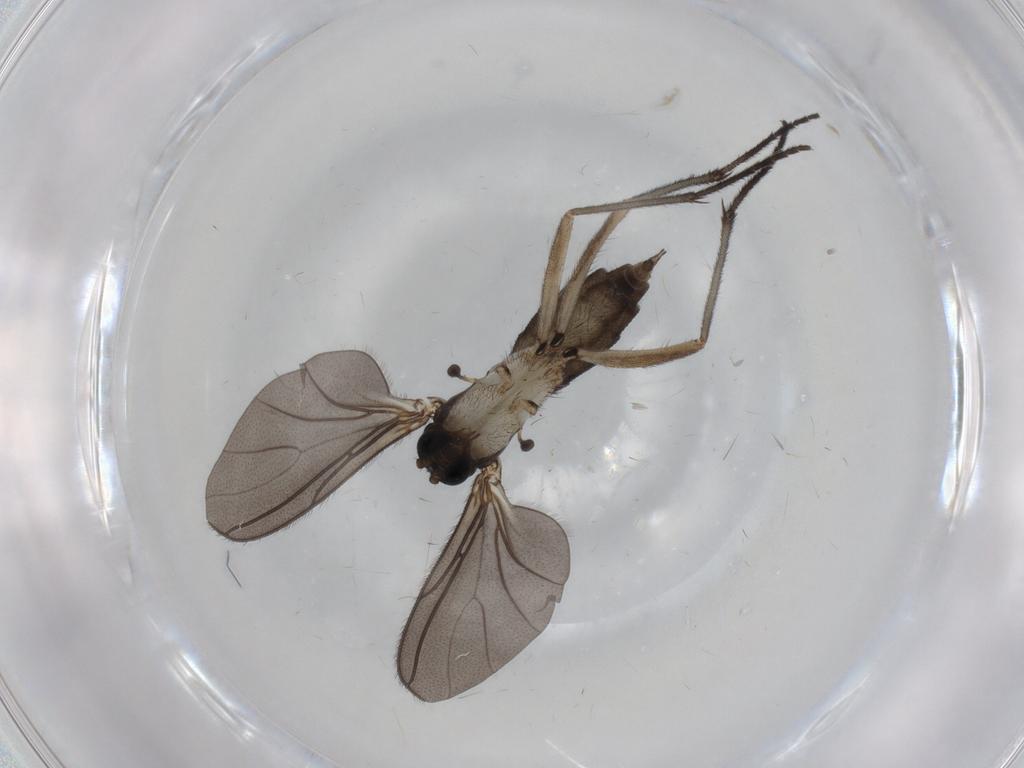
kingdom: Animalia
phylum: Arthropoda
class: Insecta
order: Diptera
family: Sciaridae
